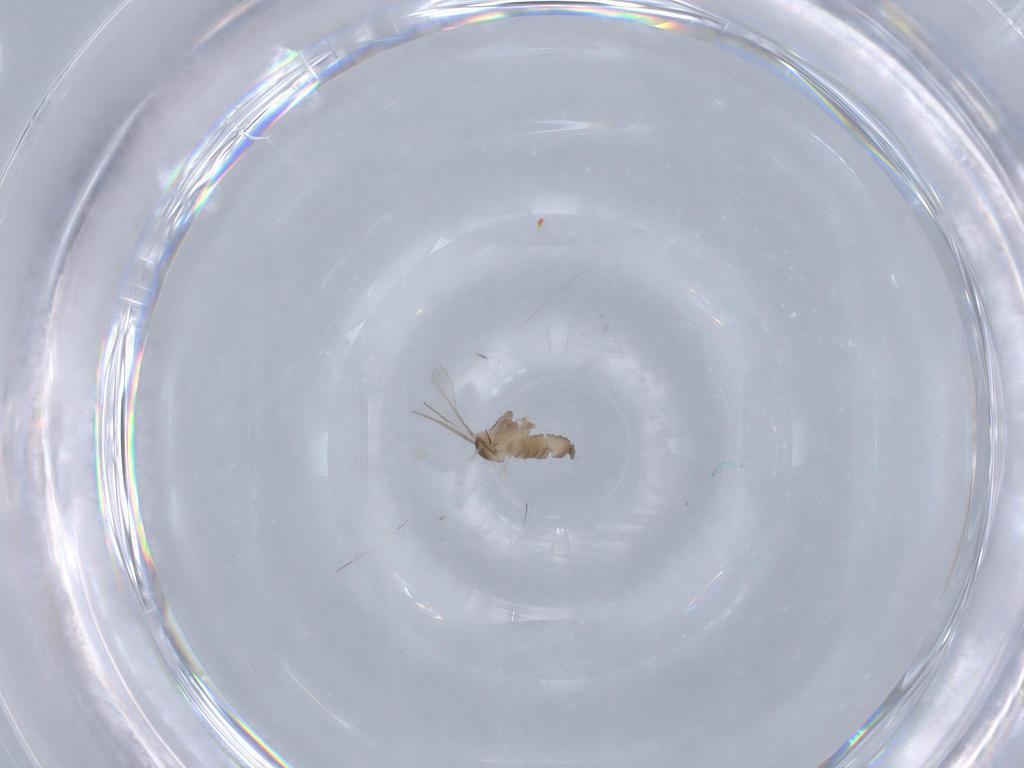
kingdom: Animalia
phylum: Arthropoda
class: Insecta
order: Diptera
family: Cecidomyiidae
